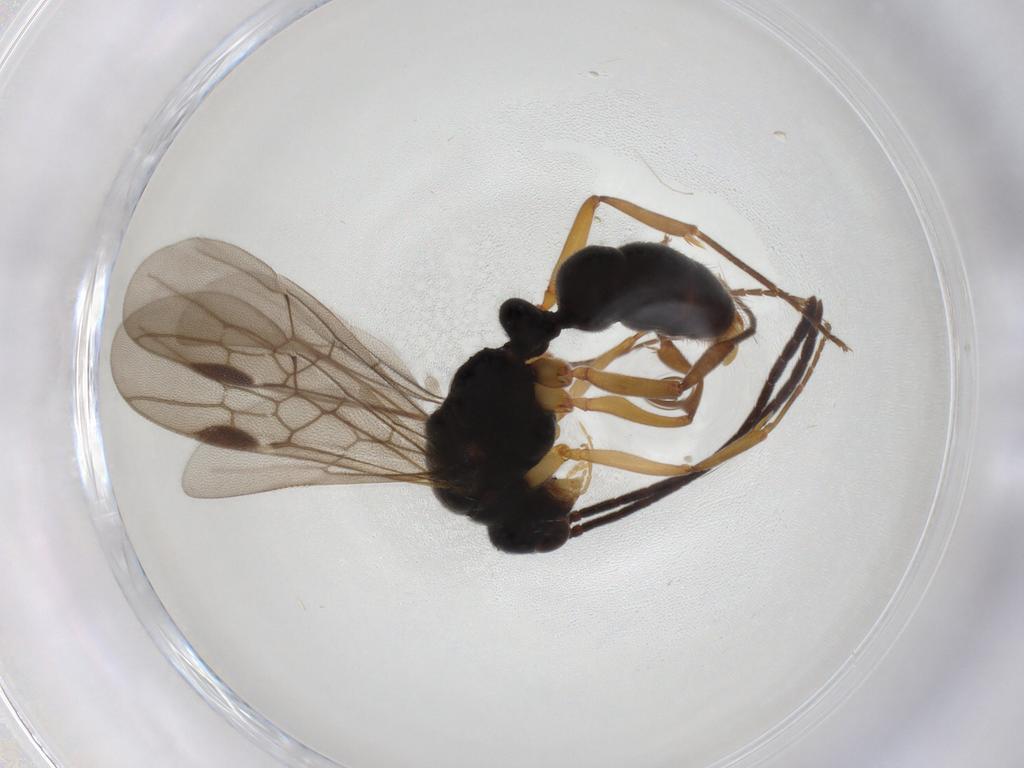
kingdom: Animalia
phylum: Arthropoda
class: Insecta
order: Hymenoptera
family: Formicidae
